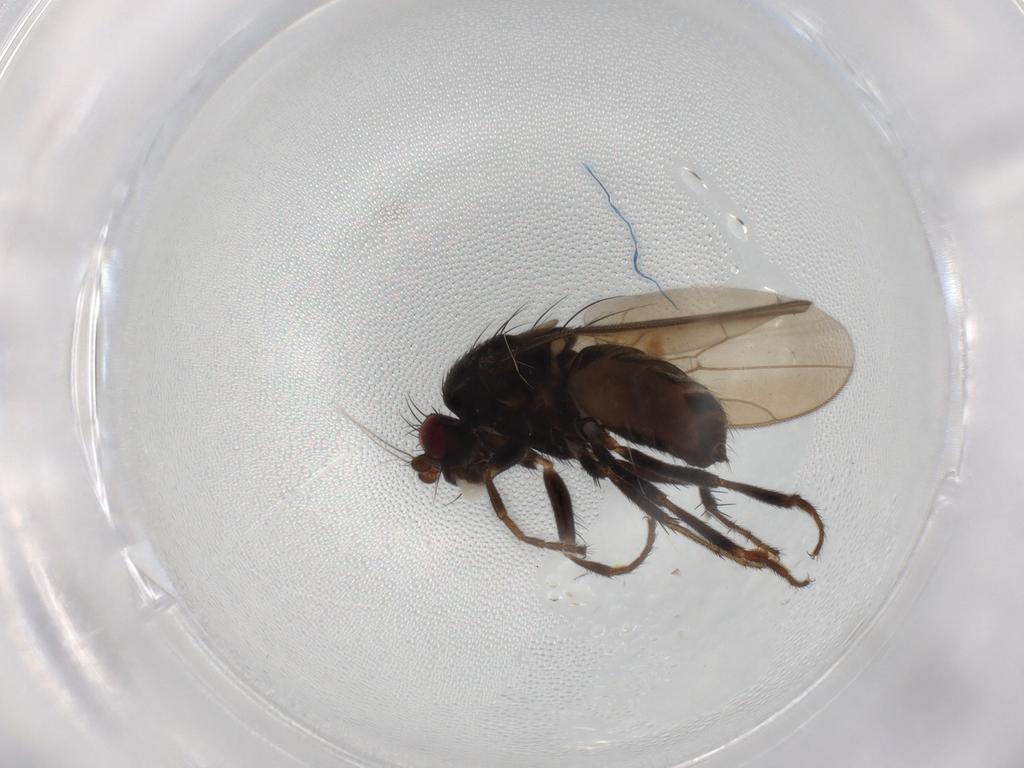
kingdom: Animalia
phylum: Arthropoda
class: Insecta
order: Diptera
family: Sphaeroceridae
